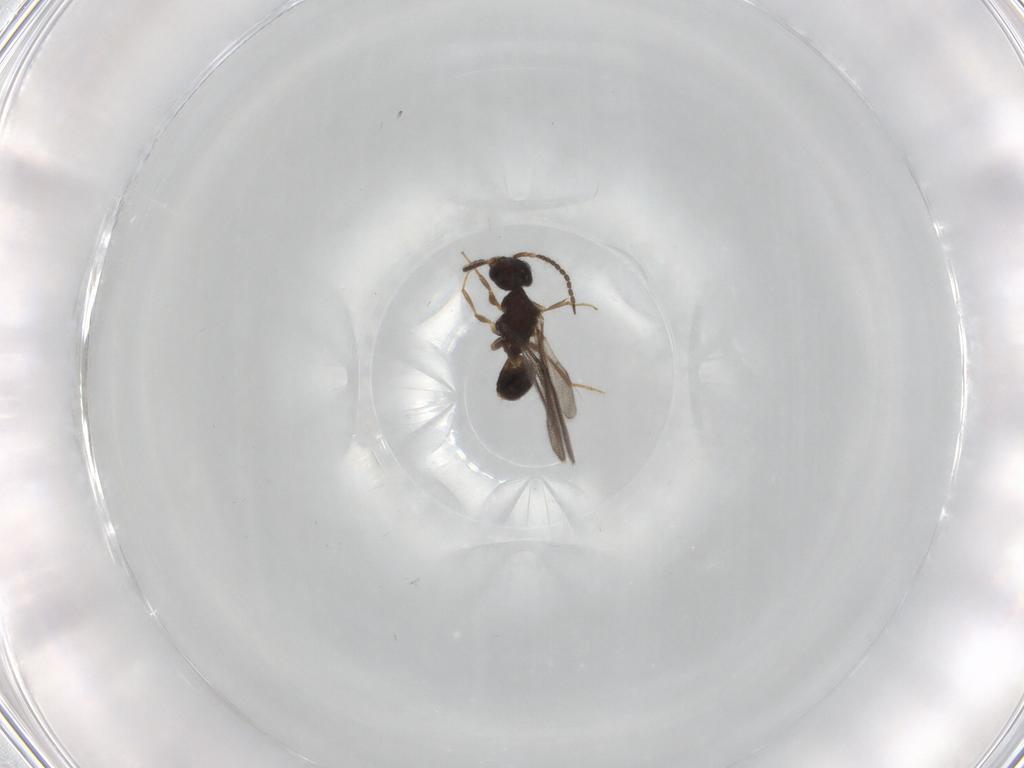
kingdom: Animalia
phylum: Arthropoda
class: Insecta
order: Hymenoptera
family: Bethylidae
